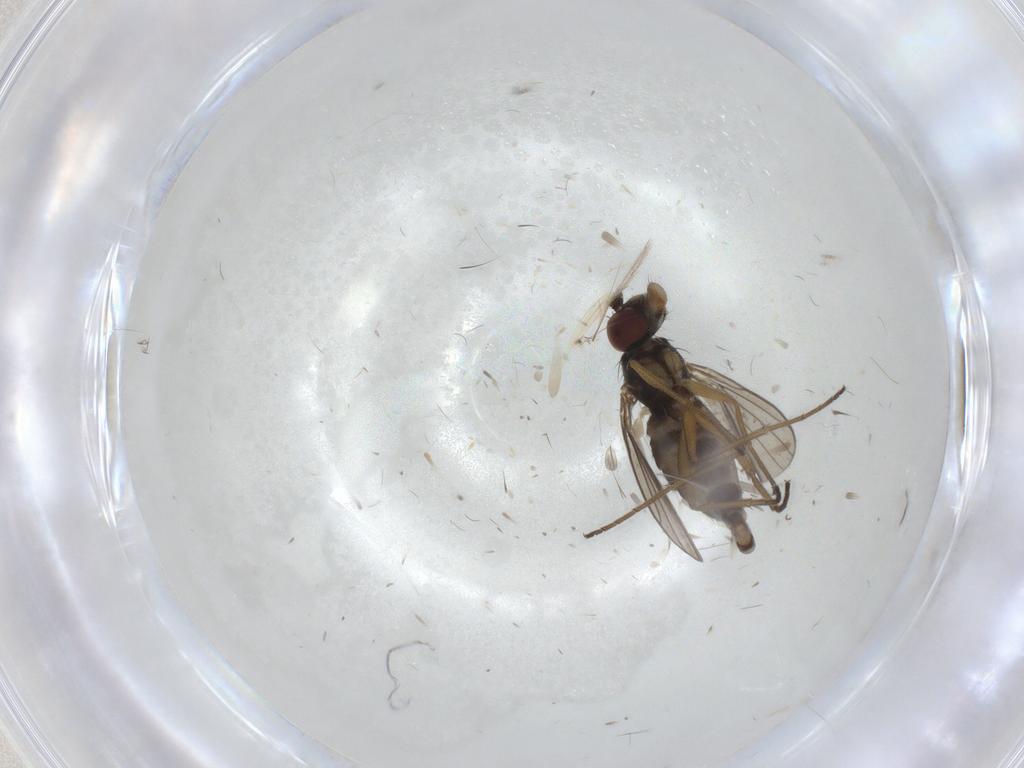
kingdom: Animalia
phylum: Arthropoda
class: Insecta
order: Diptera
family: Dolichopodidae
